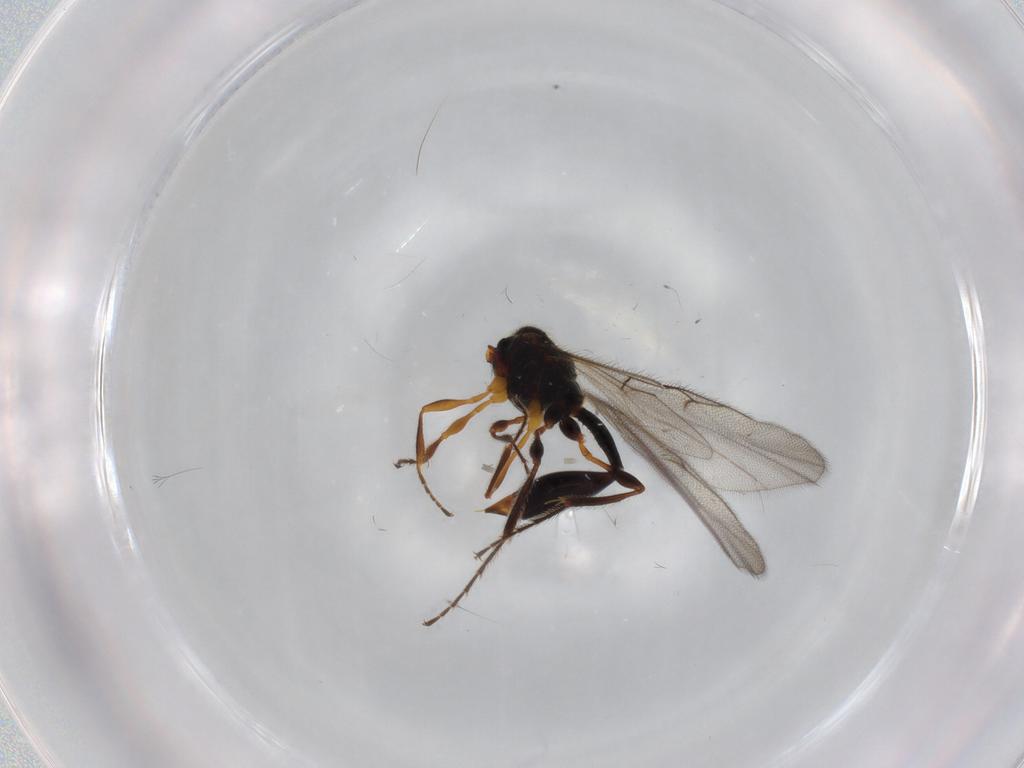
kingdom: Animalia
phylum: Arthropoda
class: Insecta
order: Hymenoptera
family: Diapriidae
